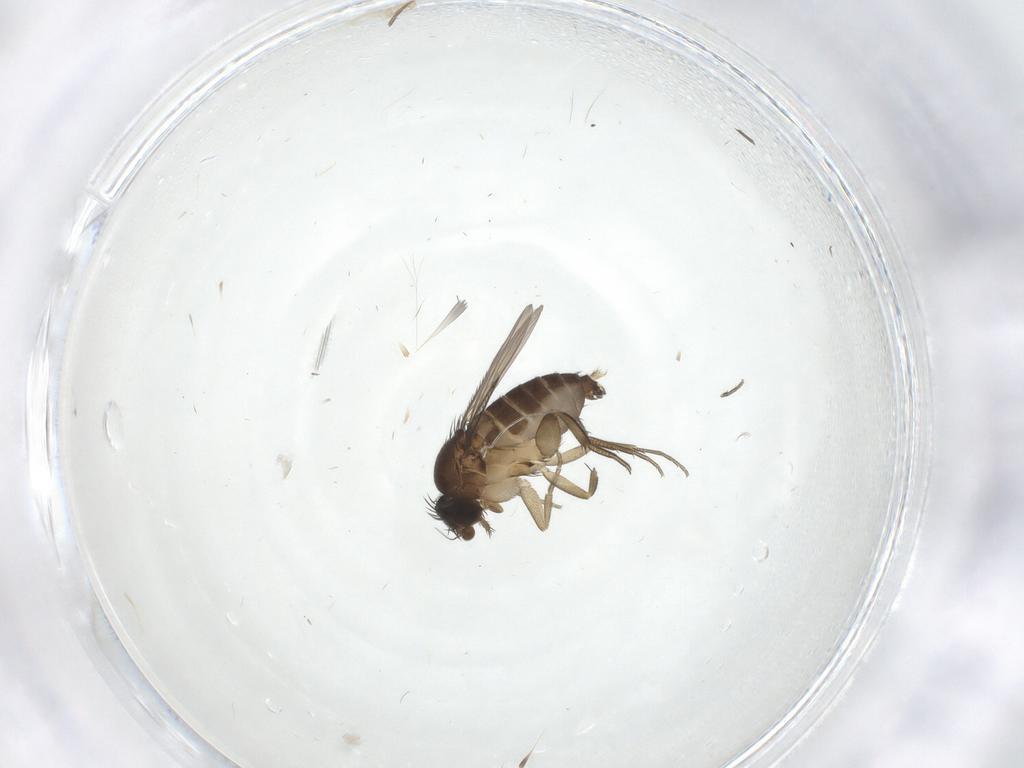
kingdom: Animalia
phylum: Arthropoda
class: Insecta
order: Diptera
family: Phoridae
